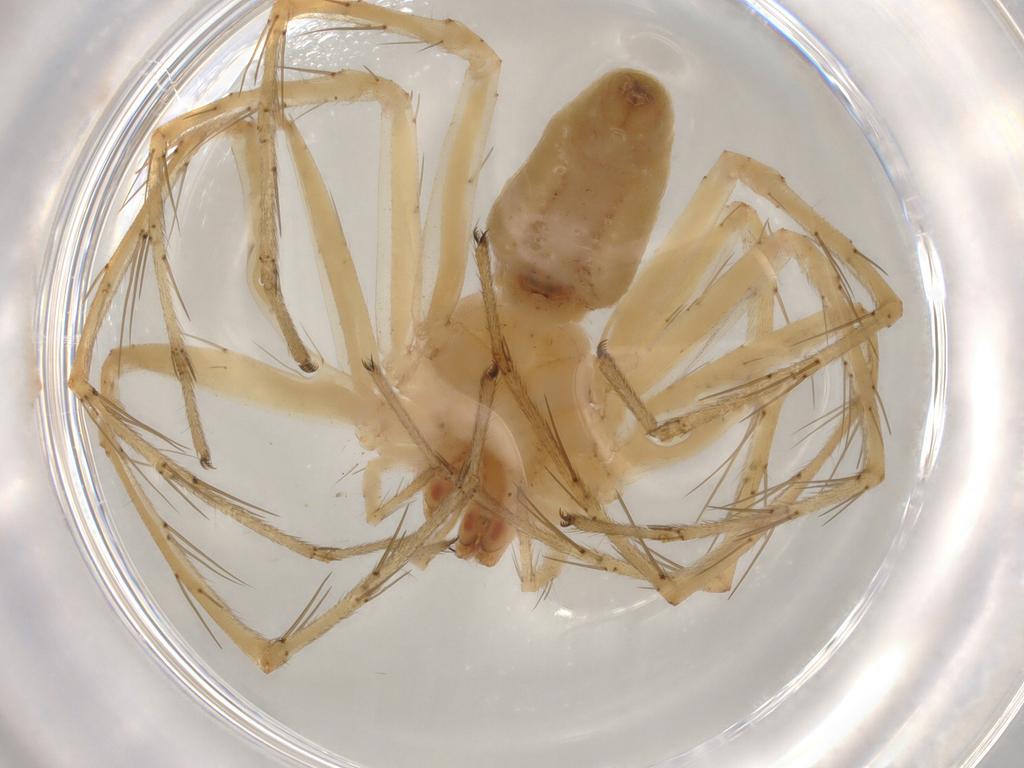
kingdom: Animalia
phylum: Arthropoda
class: Arachnida
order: Araneae
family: Oxyopidae
